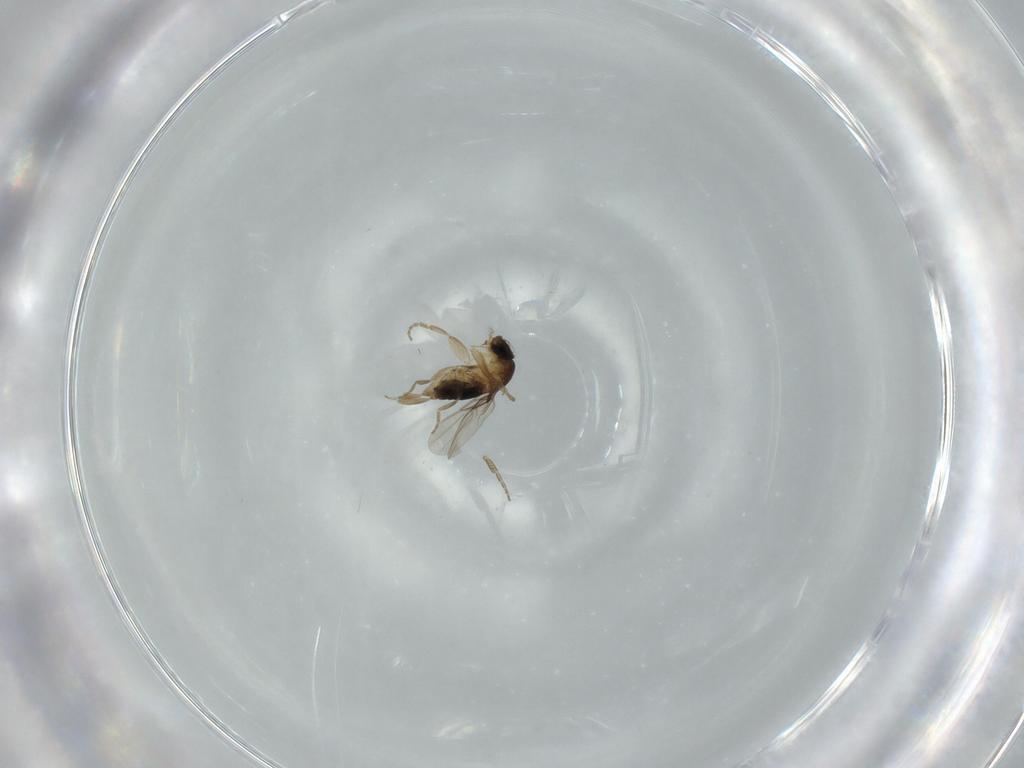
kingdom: Animalia
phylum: Arthropoda
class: Insecta
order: Diptera
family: Phoridae
